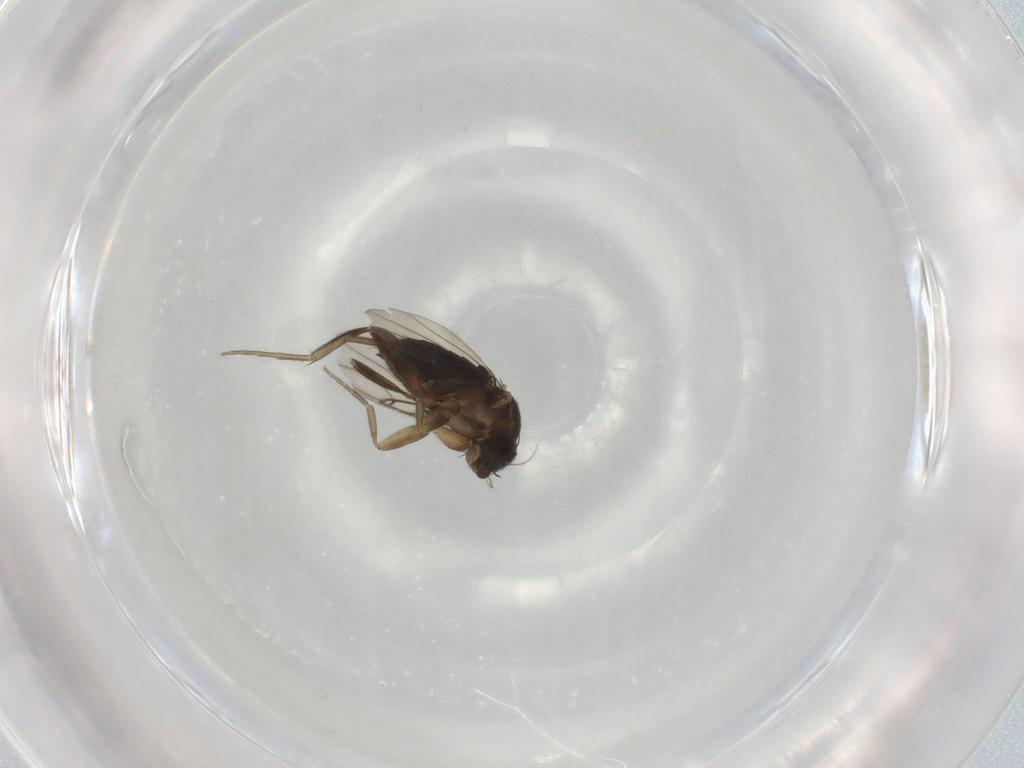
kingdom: Animalia
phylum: Arthropoda
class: Insecta
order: Diptera
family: Phoridae
